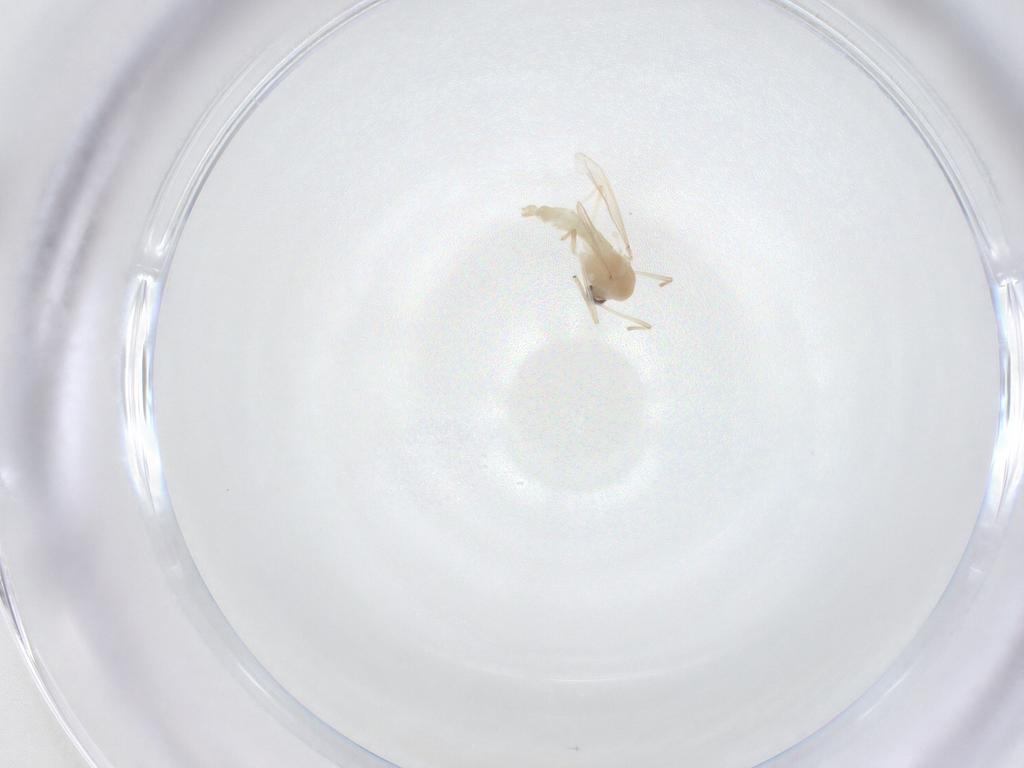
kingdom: Animalia
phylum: Arthropoda
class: Insecta
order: Diptera
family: Chironomidae
